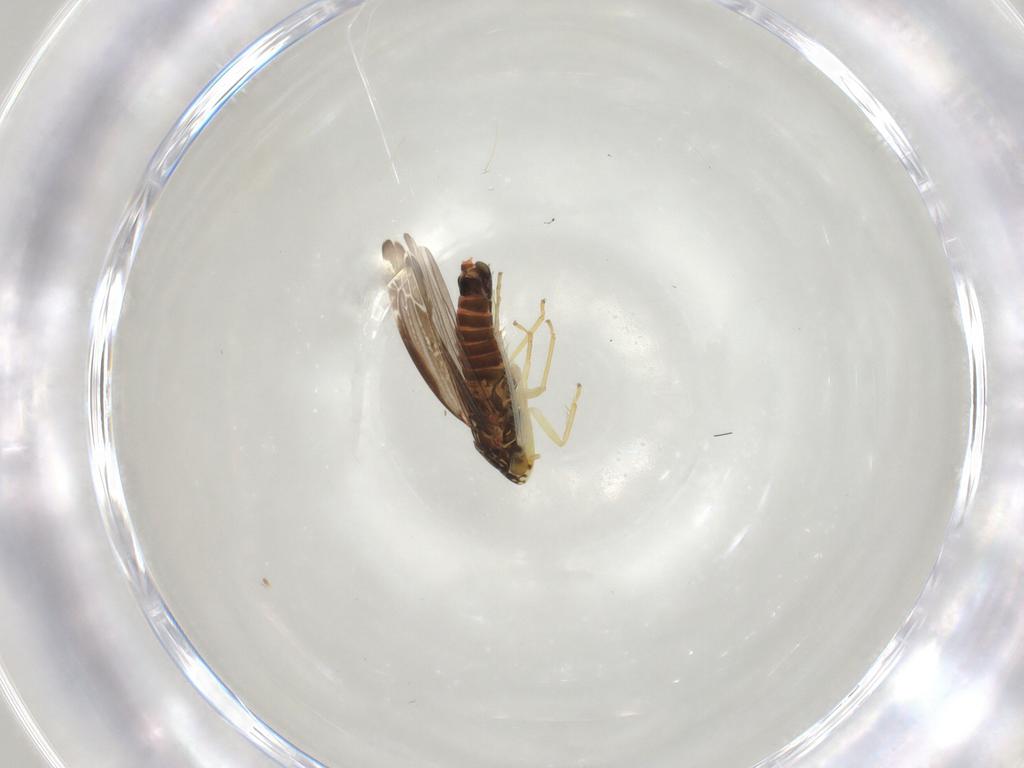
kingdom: Animalia
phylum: Arthropoda
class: Insecta
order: Hemiptera
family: Cicadellidae
